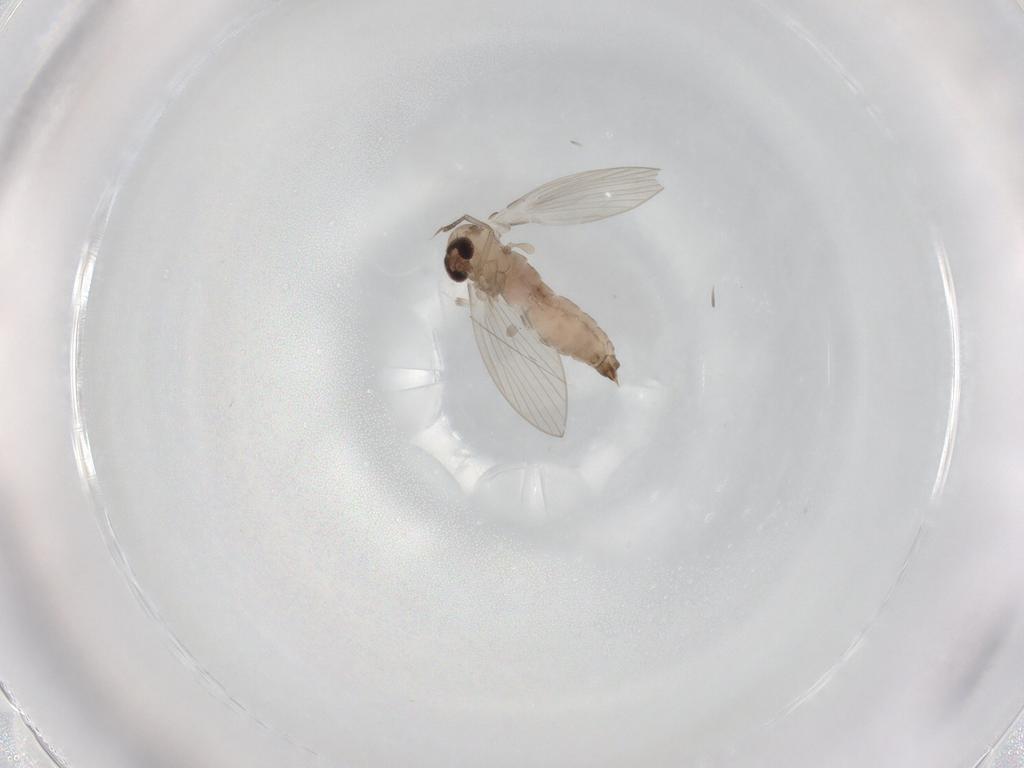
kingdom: Animalia
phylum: Arthropoda
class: Insecta
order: Diptera
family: Psychodidae
